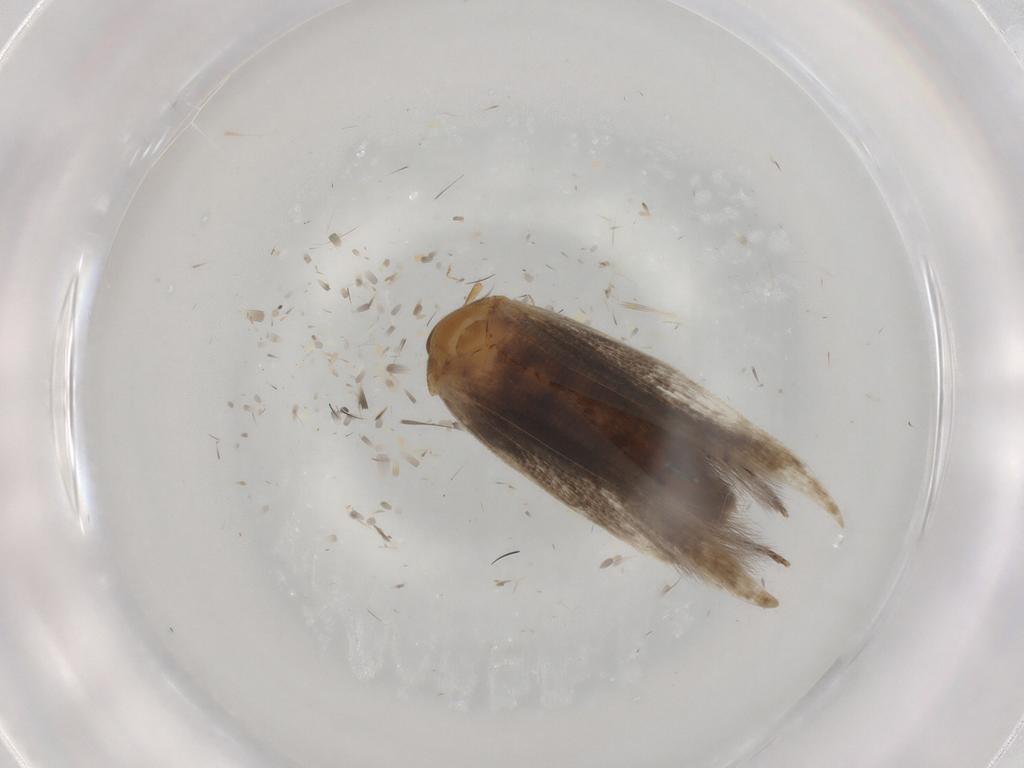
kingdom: Animalia
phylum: Arthropoda
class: Insecta
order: Lepidoptera
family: Cosmopterigidae
